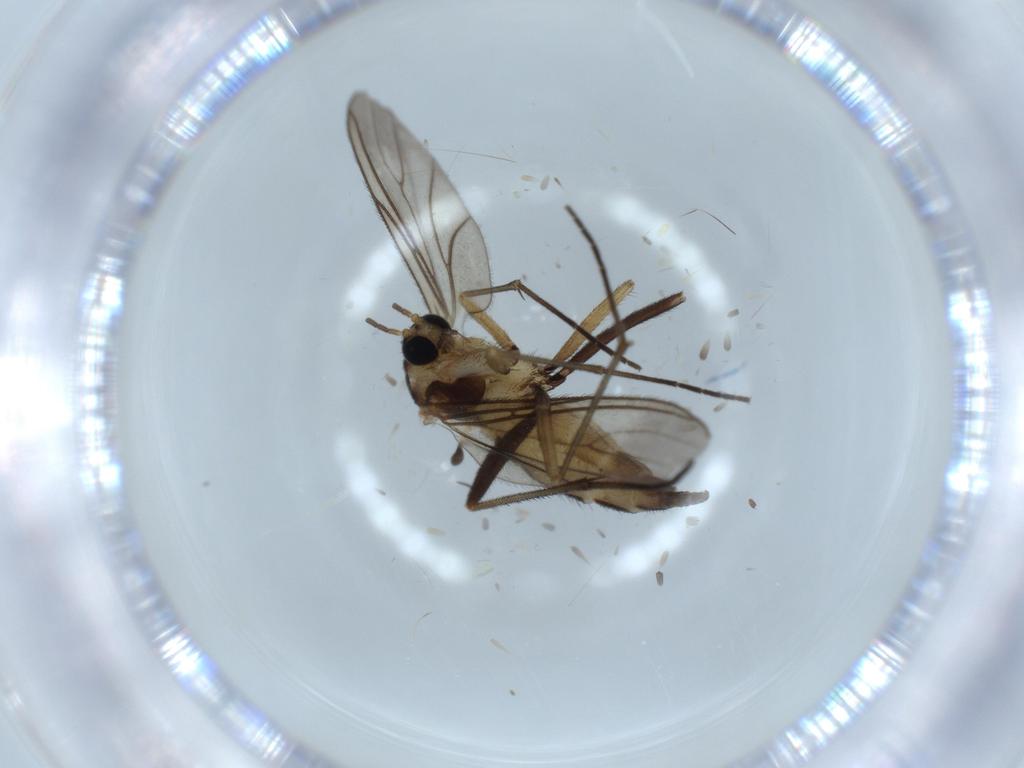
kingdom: Animalia
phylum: Arthropoda
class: Insecta
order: Diptera
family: Sciaridae
